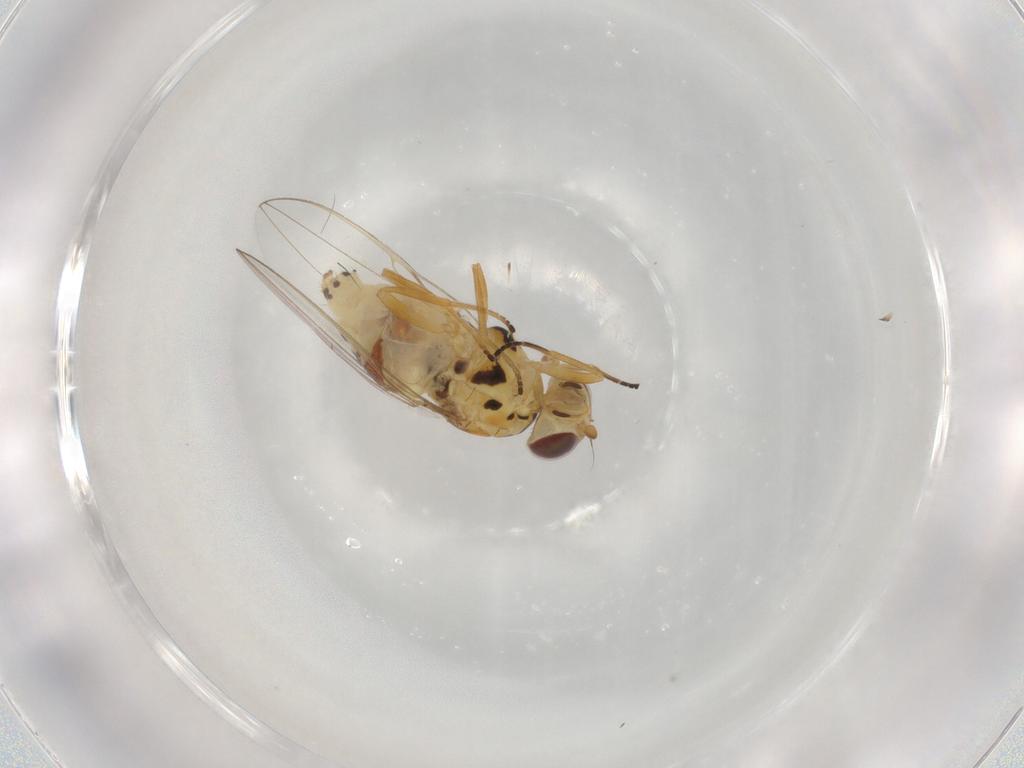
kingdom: Animalia
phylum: Arthropoda
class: Insecta
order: Diptera
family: Asteiidae
